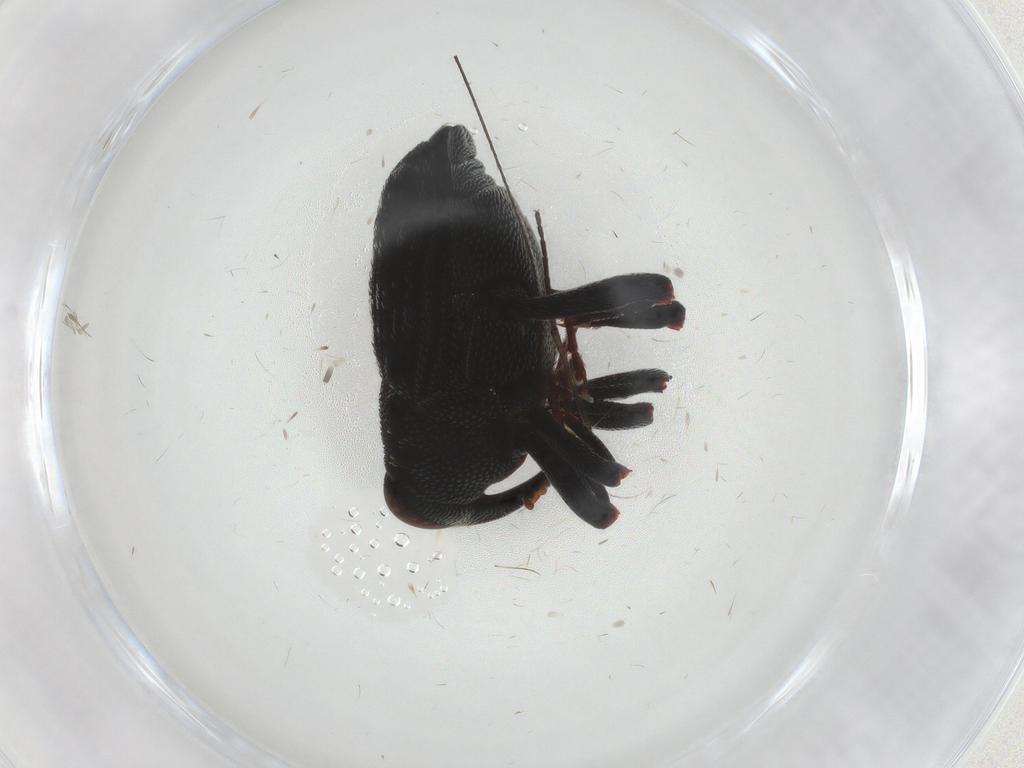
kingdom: Animalia
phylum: Arthropoda
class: Insecta
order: Coleoptera
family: Curculionidae
